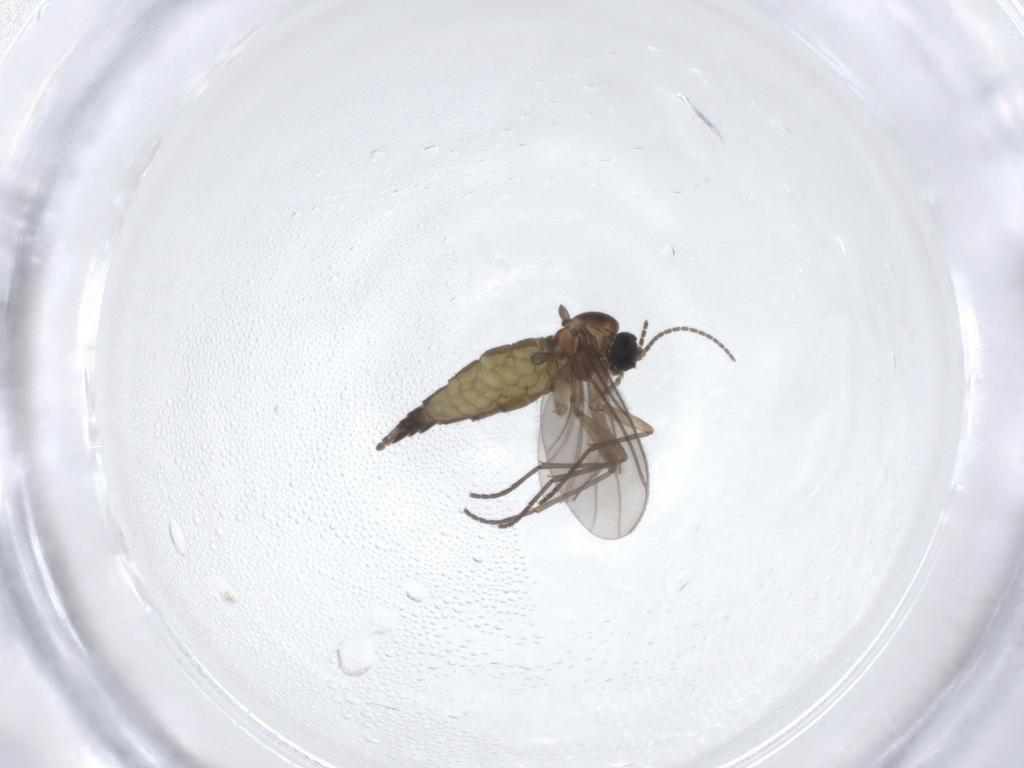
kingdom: Animalia
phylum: Arthropoda
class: Insecta
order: Diptera
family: Sciaridae
